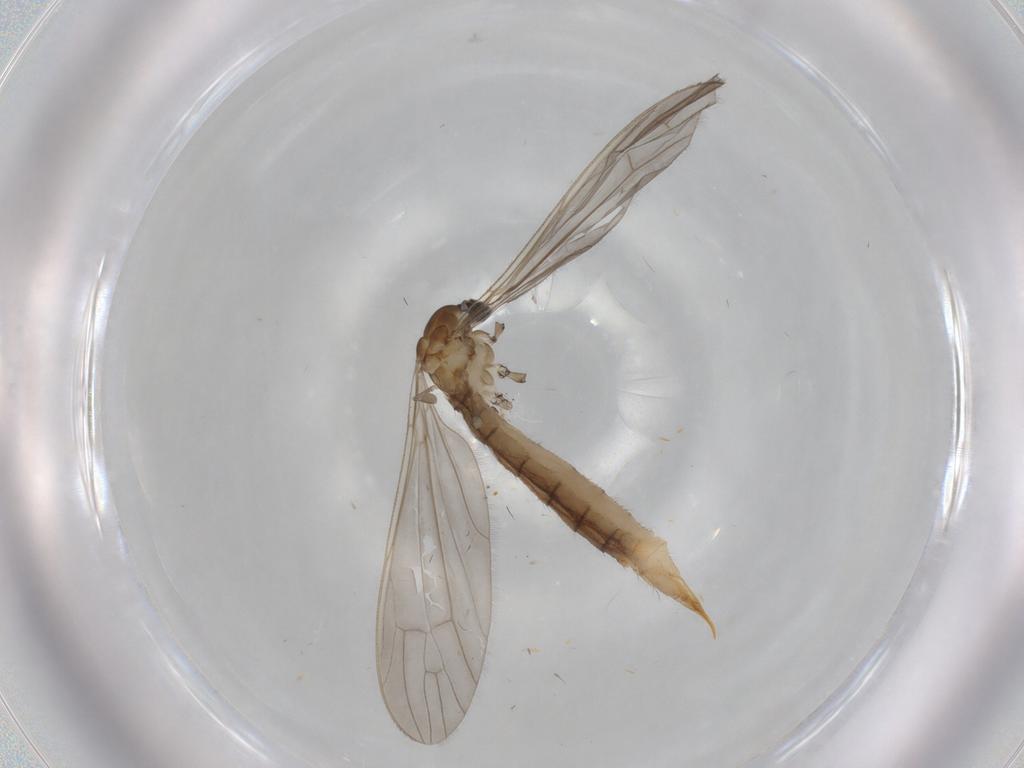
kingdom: Animalia
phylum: Arthropoda
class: Insecta
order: Diptera
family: Limoniidae
